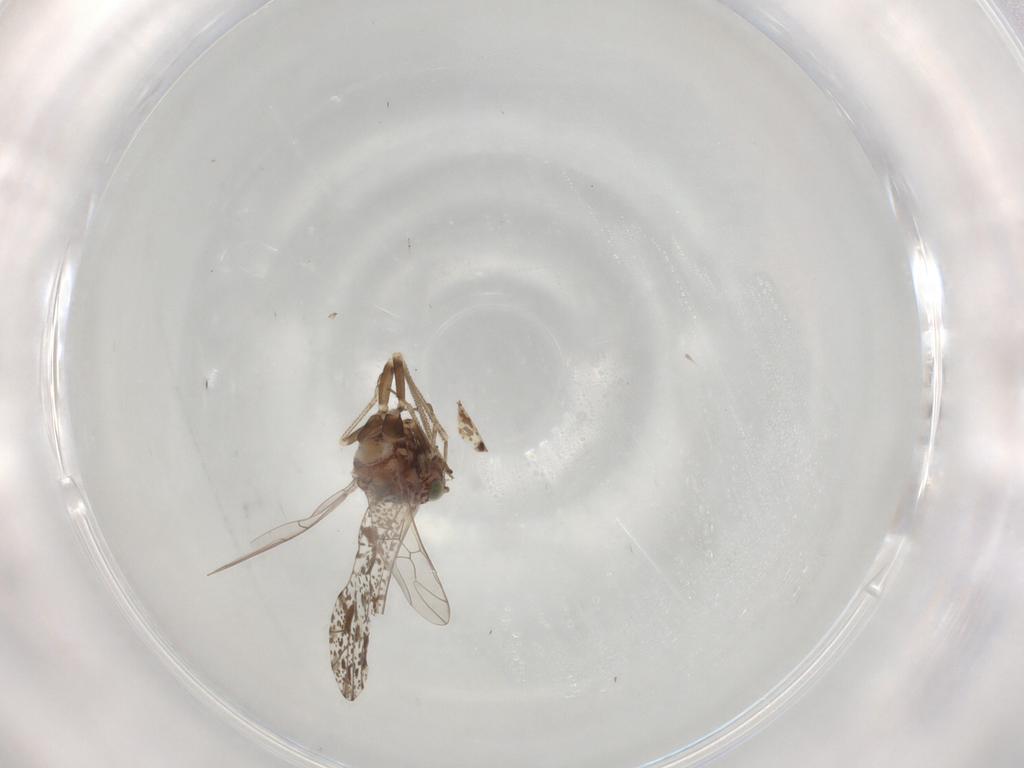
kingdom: Animalia
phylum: Arthropoda
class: Insecta
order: Psocodea
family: Psocidae
